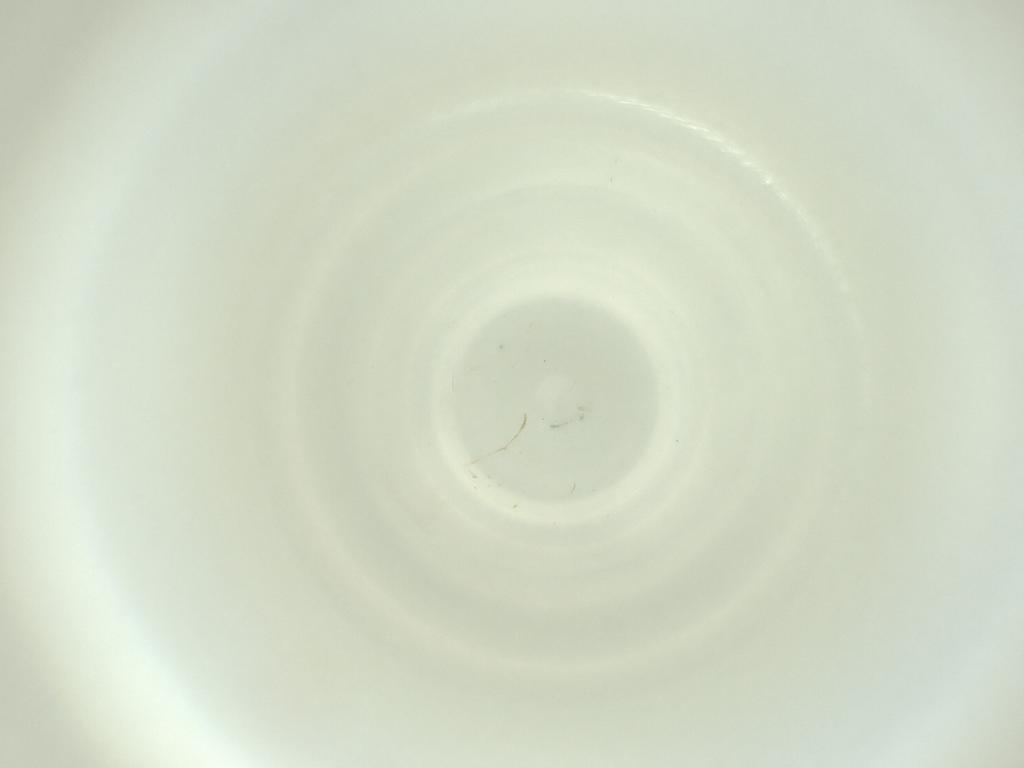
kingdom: Animalia
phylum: Arthropoda
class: Insecta
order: Diptera
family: Cecidomyiidae
